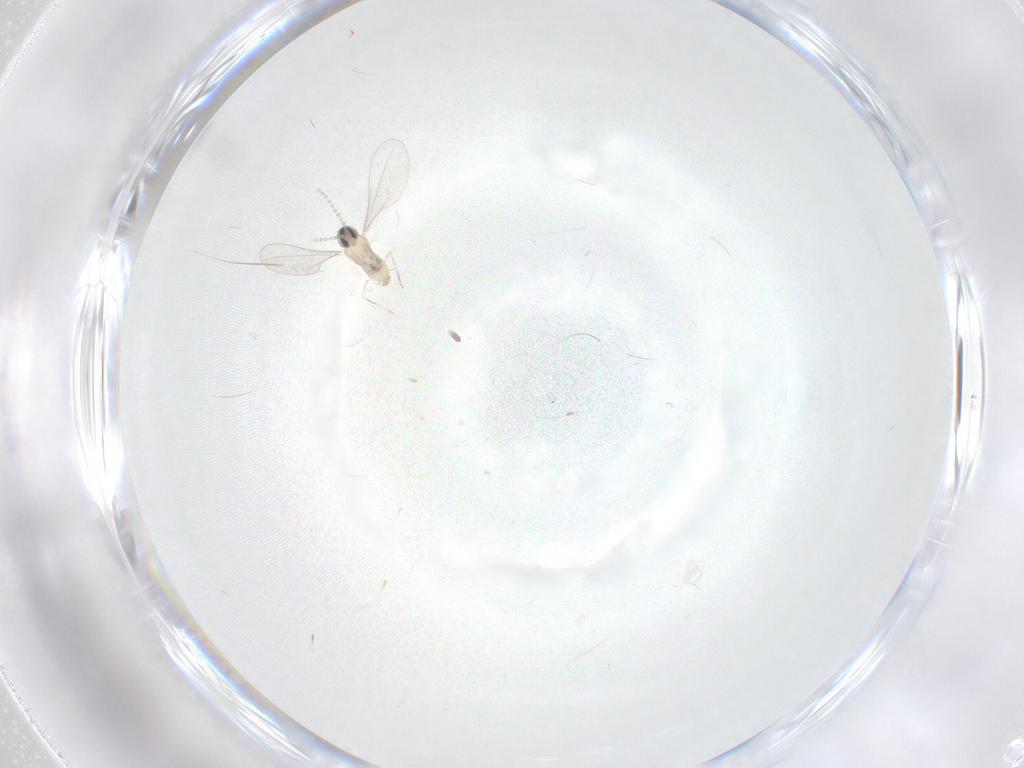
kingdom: Animalia
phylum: Arthropoda
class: Insecta
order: Diptera
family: Cecidomyiidae
